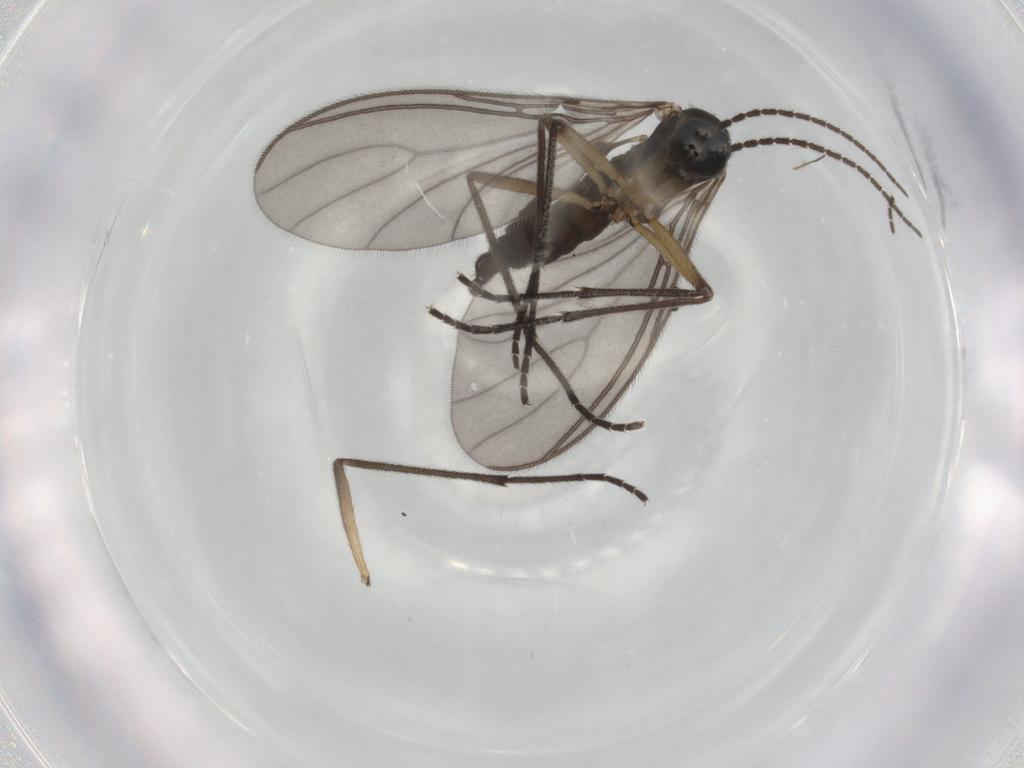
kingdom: Animalia
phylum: Arthropoda
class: Insecta
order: Diptera
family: Sciaridae
